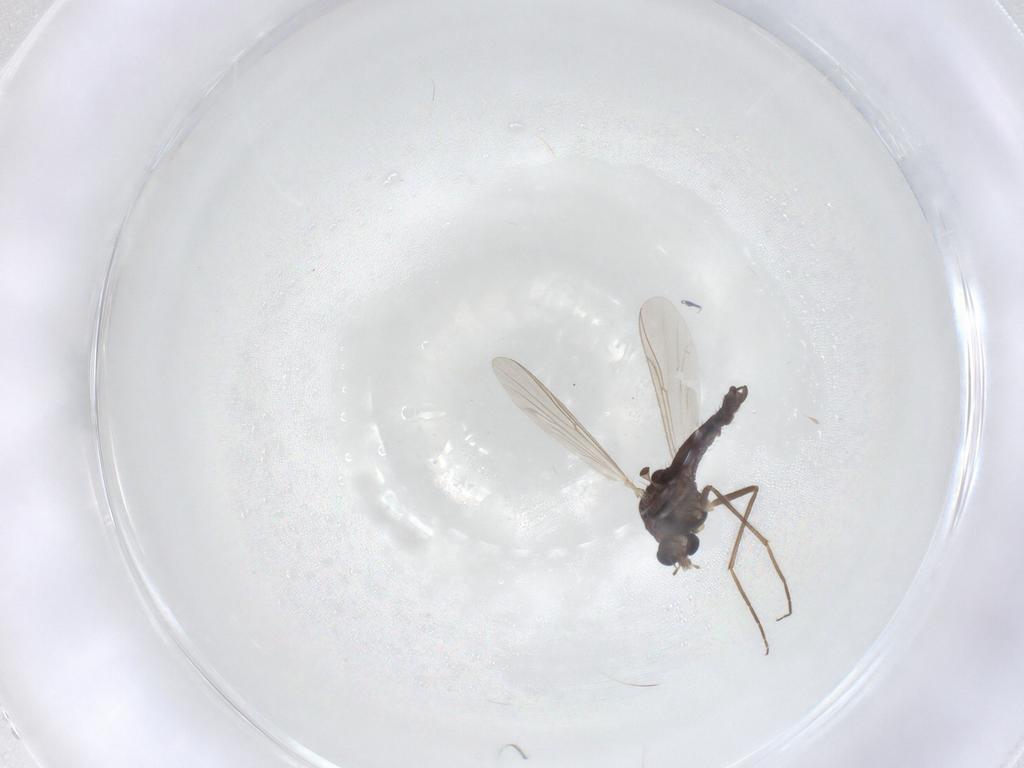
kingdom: Animalia
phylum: Arthropoda
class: Insecta
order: Diptera
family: Chironomidae
